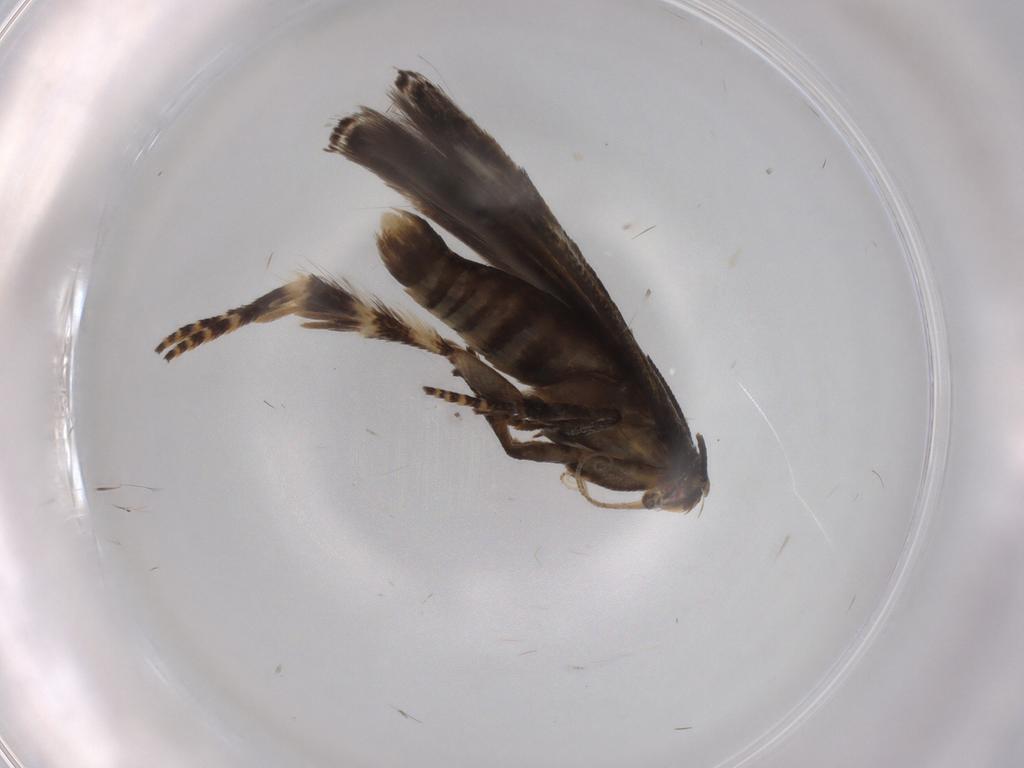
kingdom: Animalia
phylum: Arthropoda
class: Insecta
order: Lepidoptera
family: Momphidae
